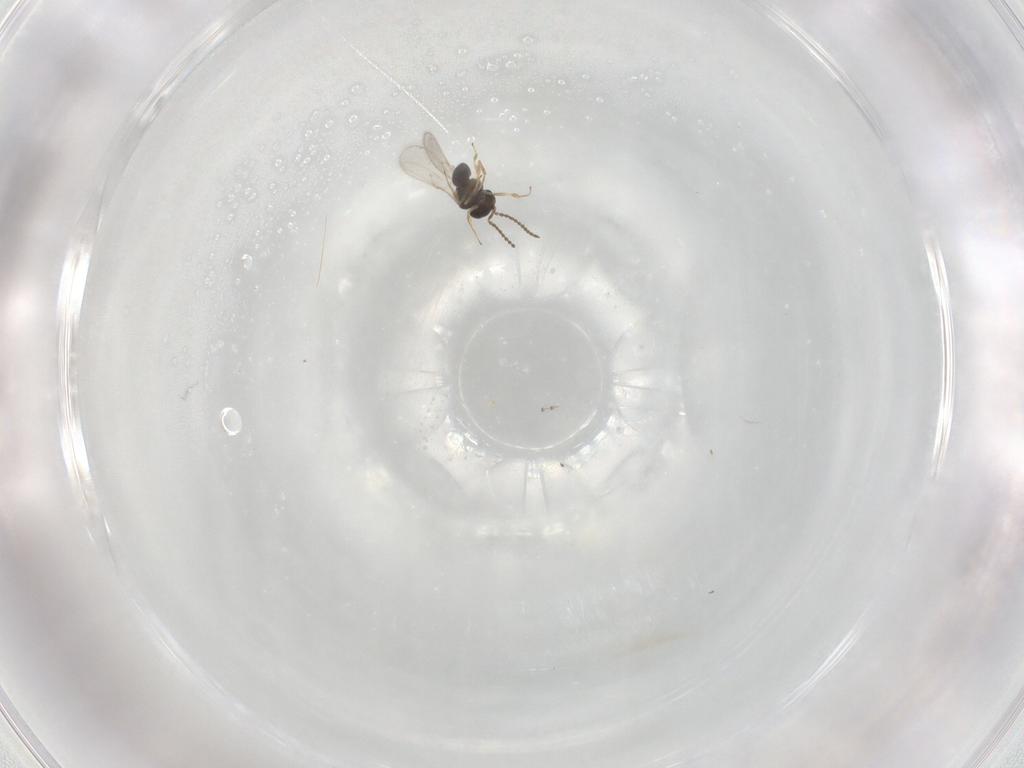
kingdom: Animalia
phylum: Arthropoda
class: Insecta
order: Hymenoptera
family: Scelionidae
